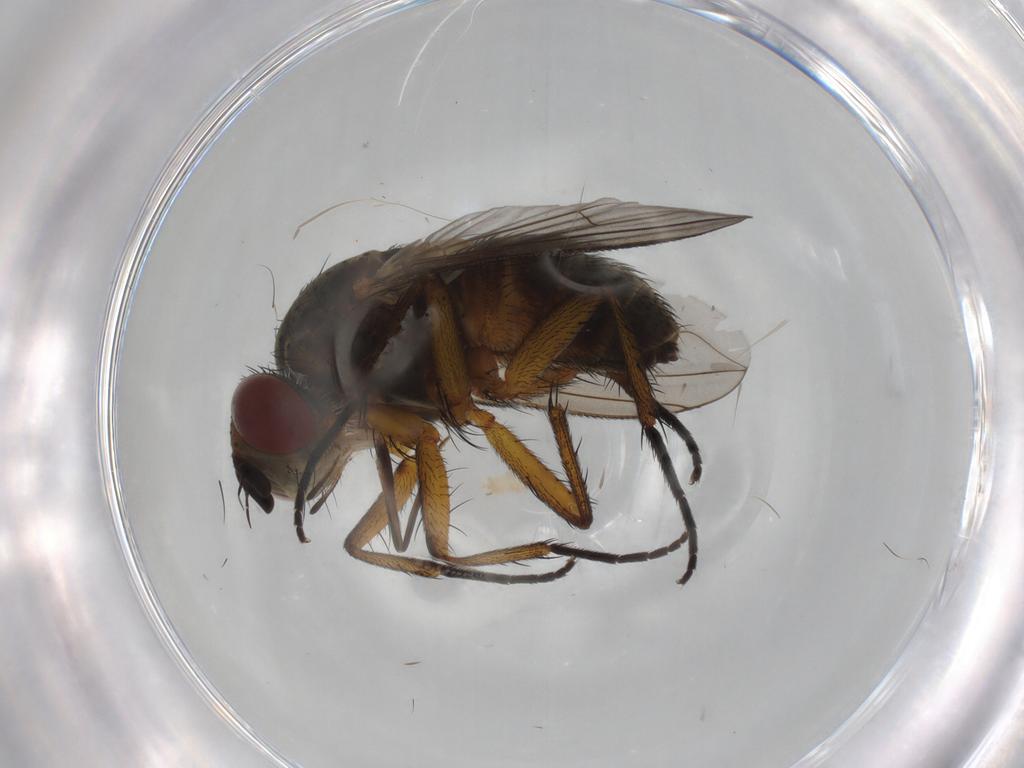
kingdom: Animalia
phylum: Arthropoda
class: Insecta
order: Diptera
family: Tachinidae
